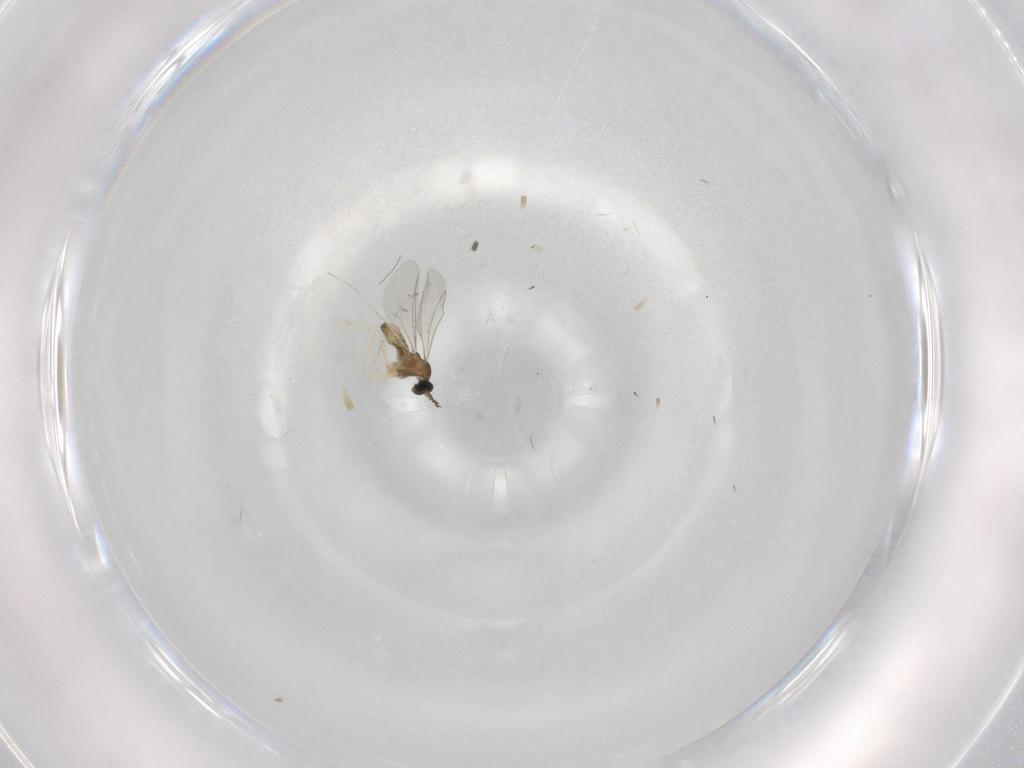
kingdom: Animalia
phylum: Arthropoda
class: Insecta
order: Diptera
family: Cecidomyiidae
